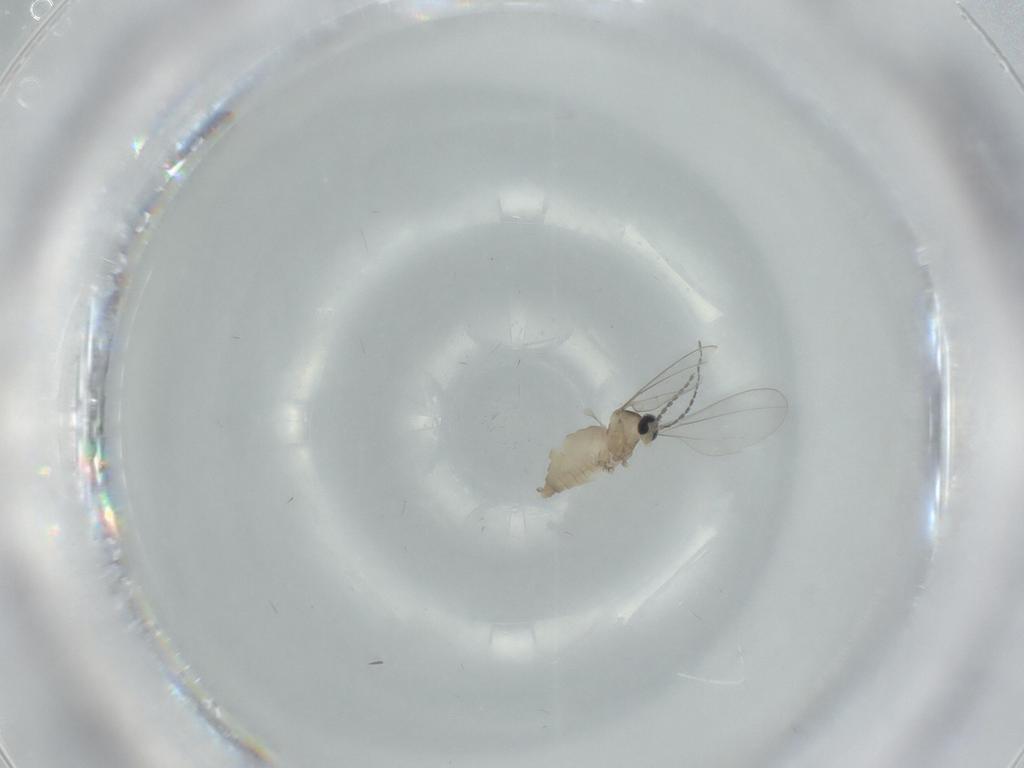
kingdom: Animalia
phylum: Arthropoda
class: Insecta
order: Diptera
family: Cecidomyiidae
